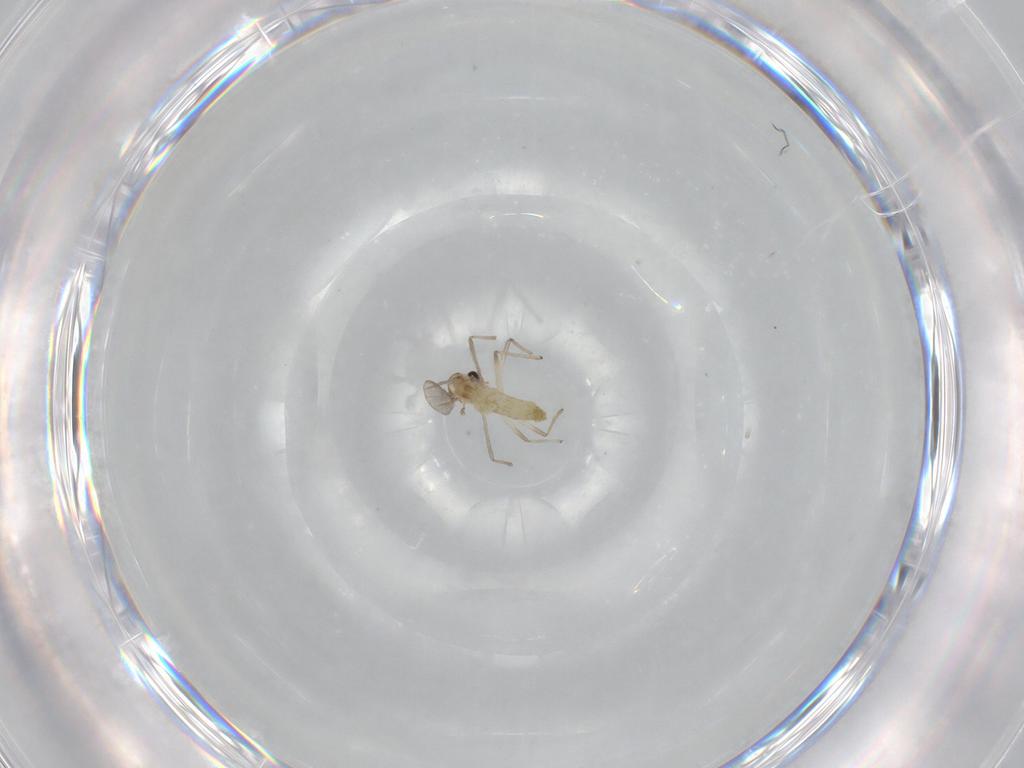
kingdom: Animalia
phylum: Arthropoda
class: Insecta
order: Diptera
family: Chironomidae
